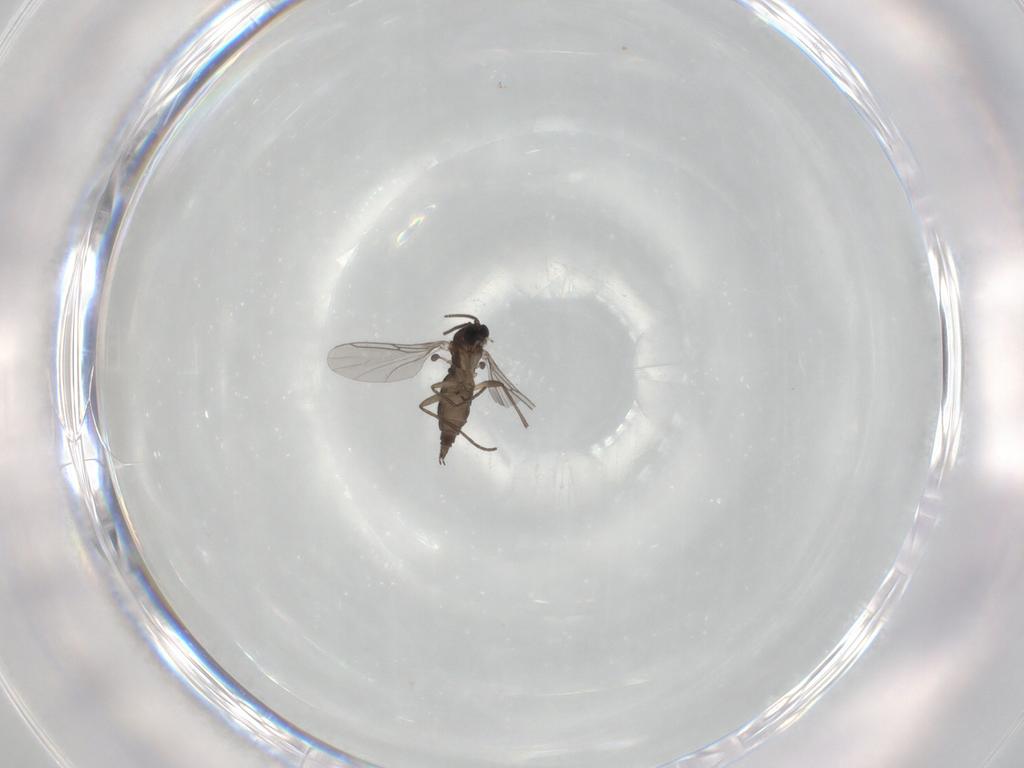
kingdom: Animalia
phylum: Arthropoda
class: Insecta
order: Diptera
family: Sciaridae
